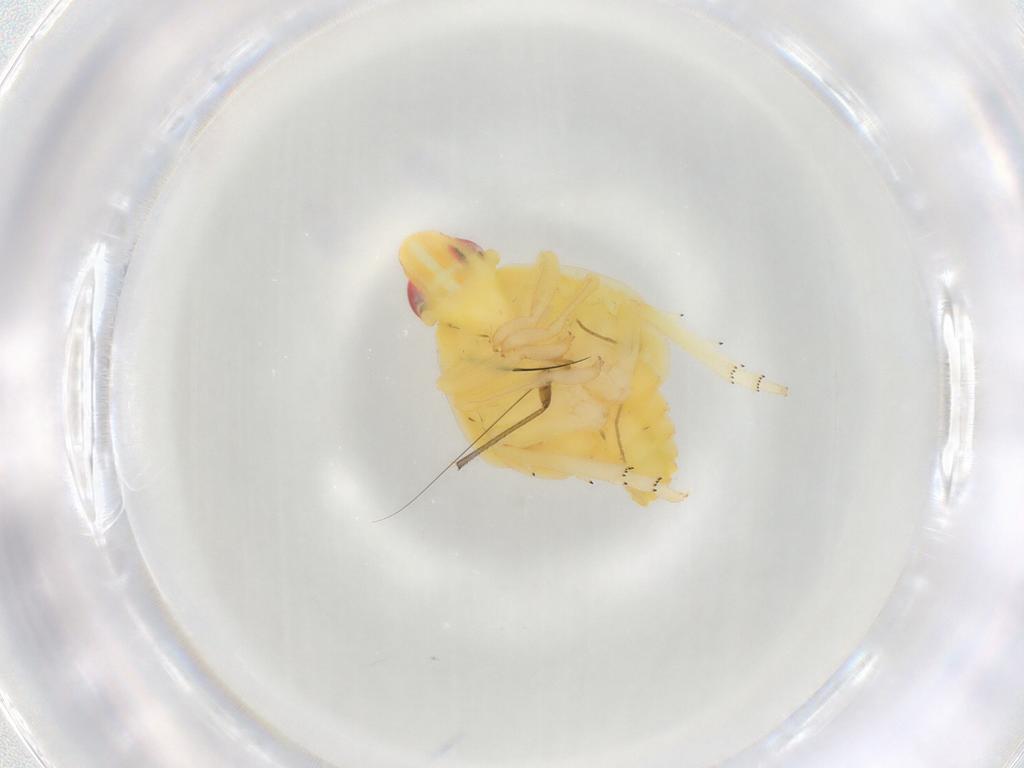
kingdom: Animalia
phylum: Arthropoda
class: Insecta
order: Hemiptera
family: Tropiduchidae
